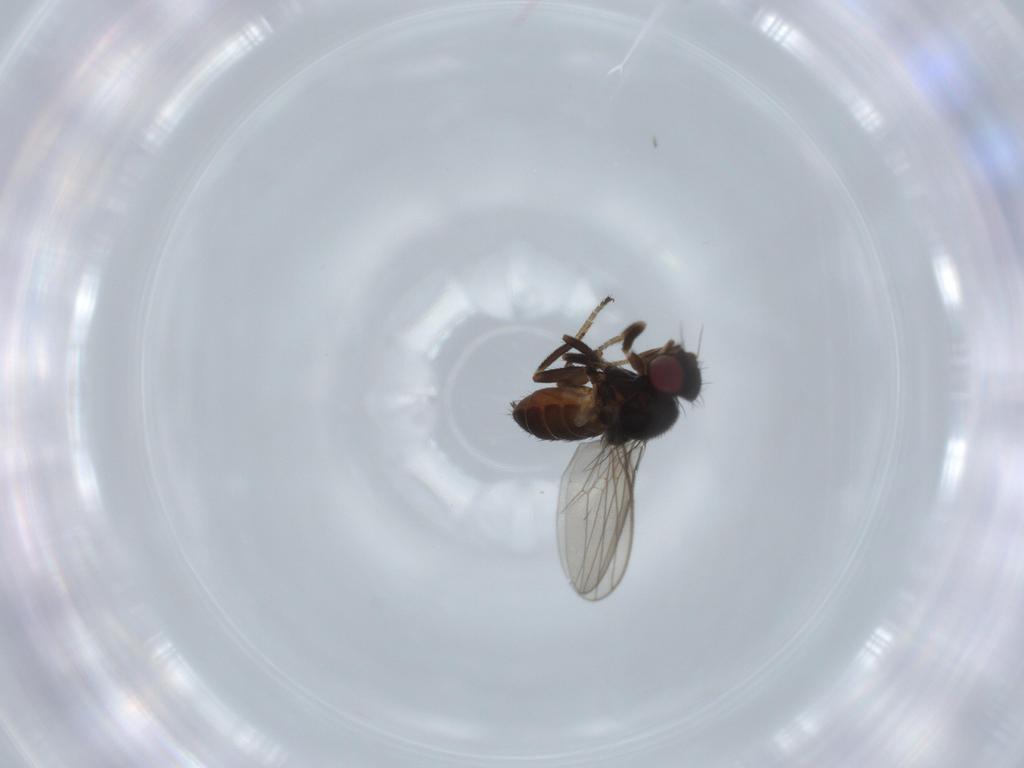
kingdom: Animalia
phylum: Arthropoda
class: Insecta
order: Diptera
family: Milichiidae
